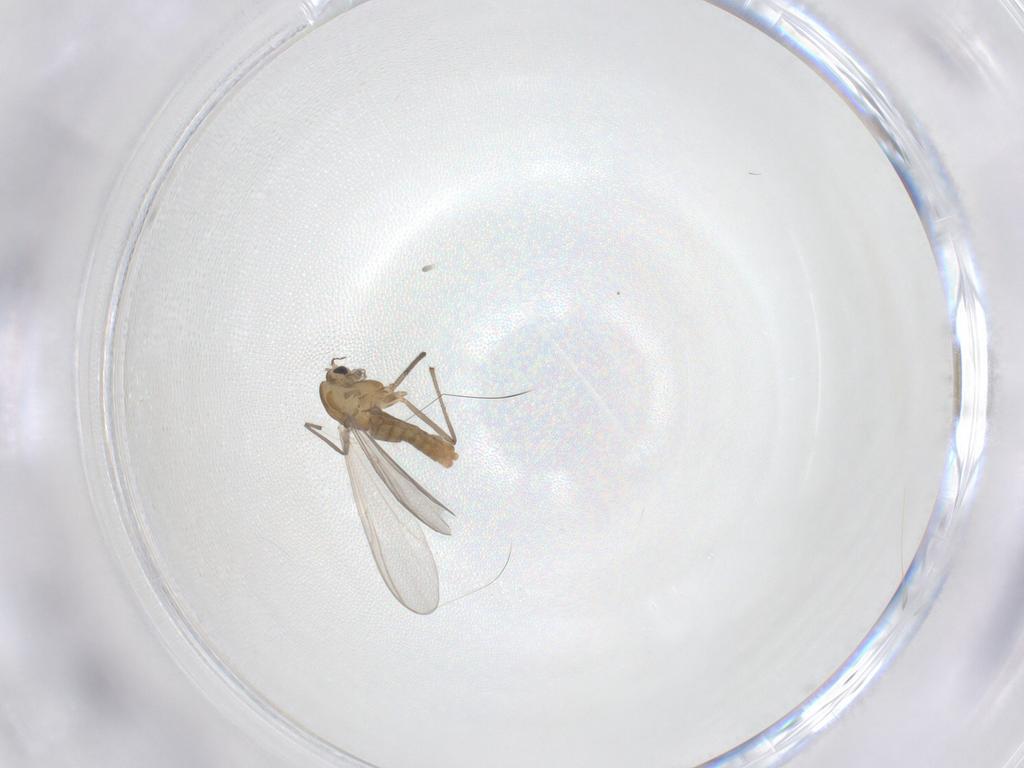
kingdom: Animalia
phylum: Arthropoda
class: Insecta
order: Diptera
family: Chironomidae
